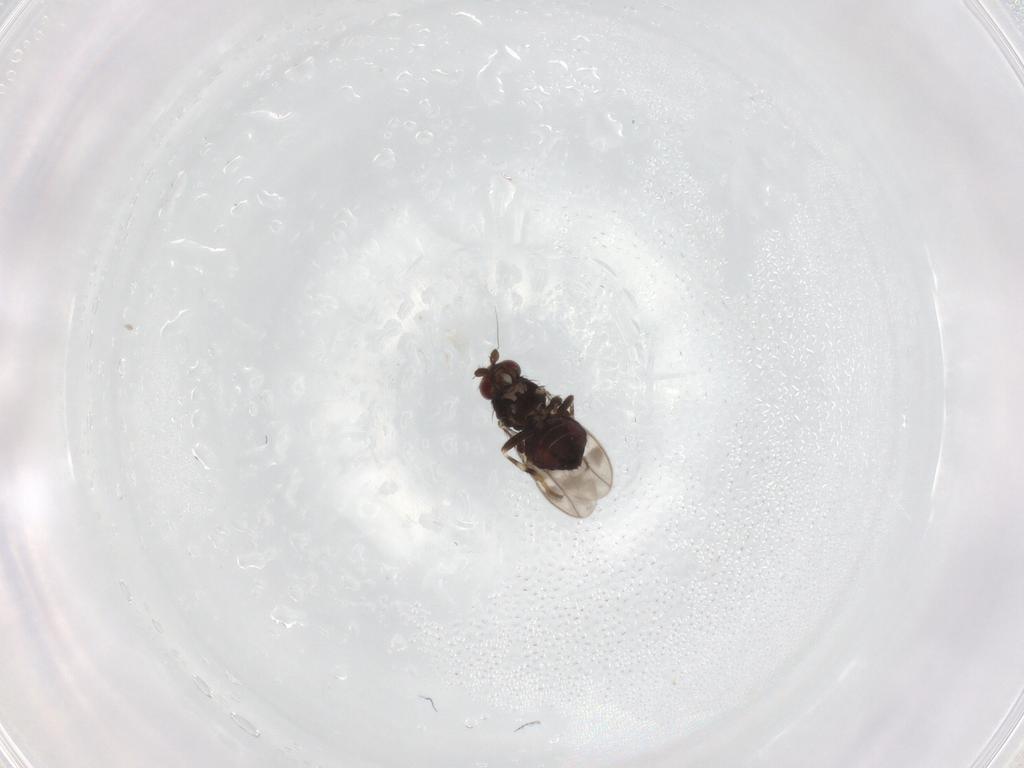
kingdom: Animalia
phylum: Arthropoda
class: Insecta
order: Diptera
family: Sphaeroceridae
